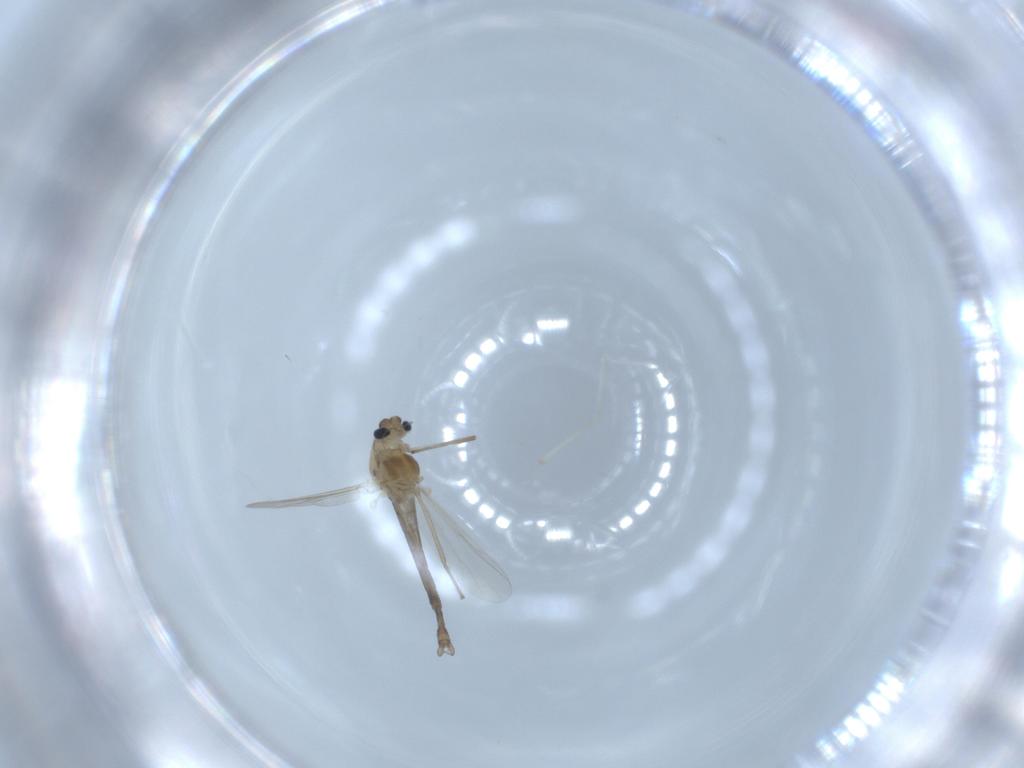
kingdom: Animalia
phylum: Arthropoda
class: Insecta
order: Diptera
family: Chironomidae
